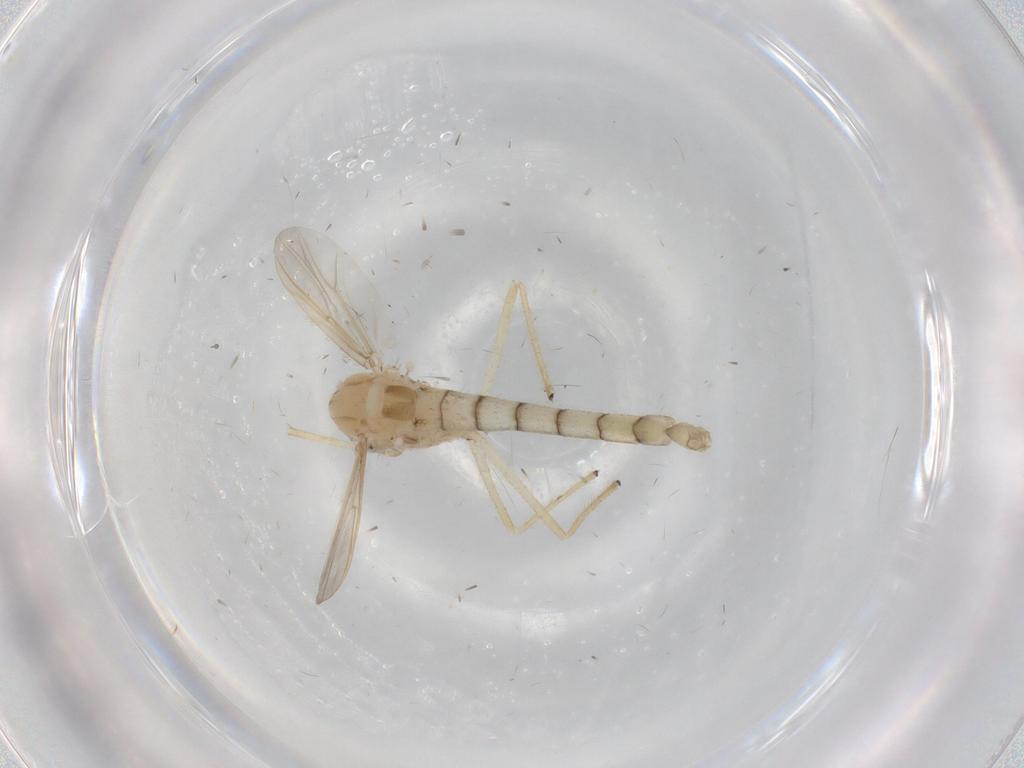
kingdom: Animalia
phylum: Arthropoda
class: Insecta
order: Diptera
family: Chironomidae
